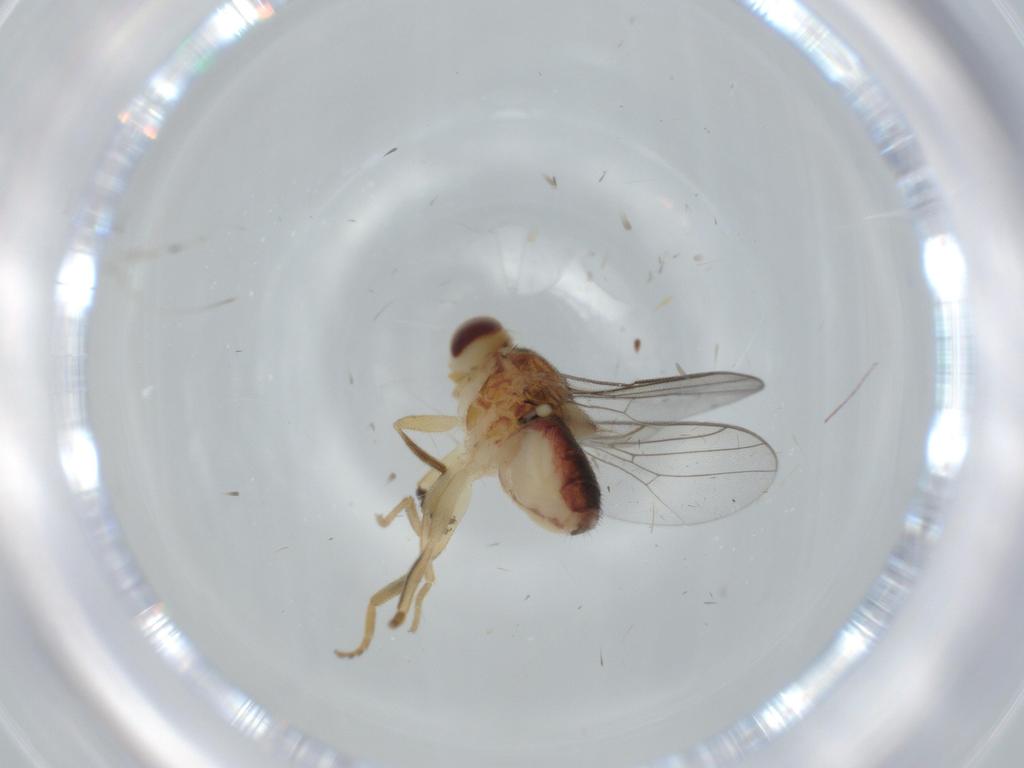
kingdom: Animalia
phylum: Arthropoda
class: Insecta
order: Diptera
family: Chloropidae
